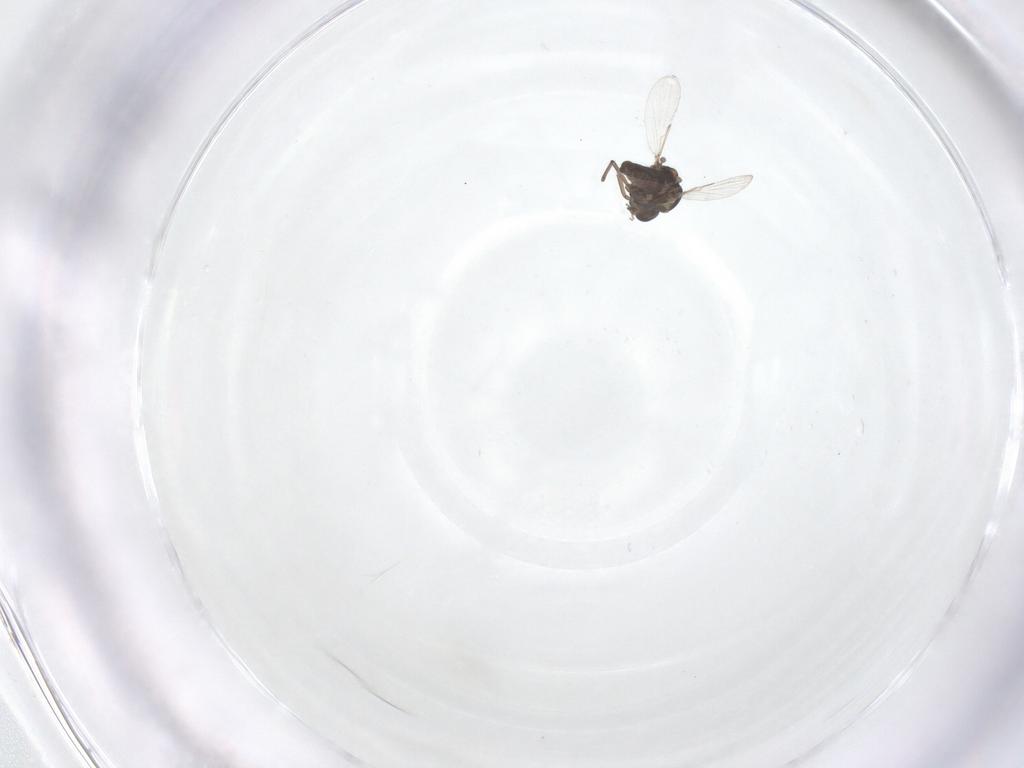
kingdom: Animalia
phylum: Arthropoda
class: Insecta
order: Diptera
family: Ceratopogonidae
